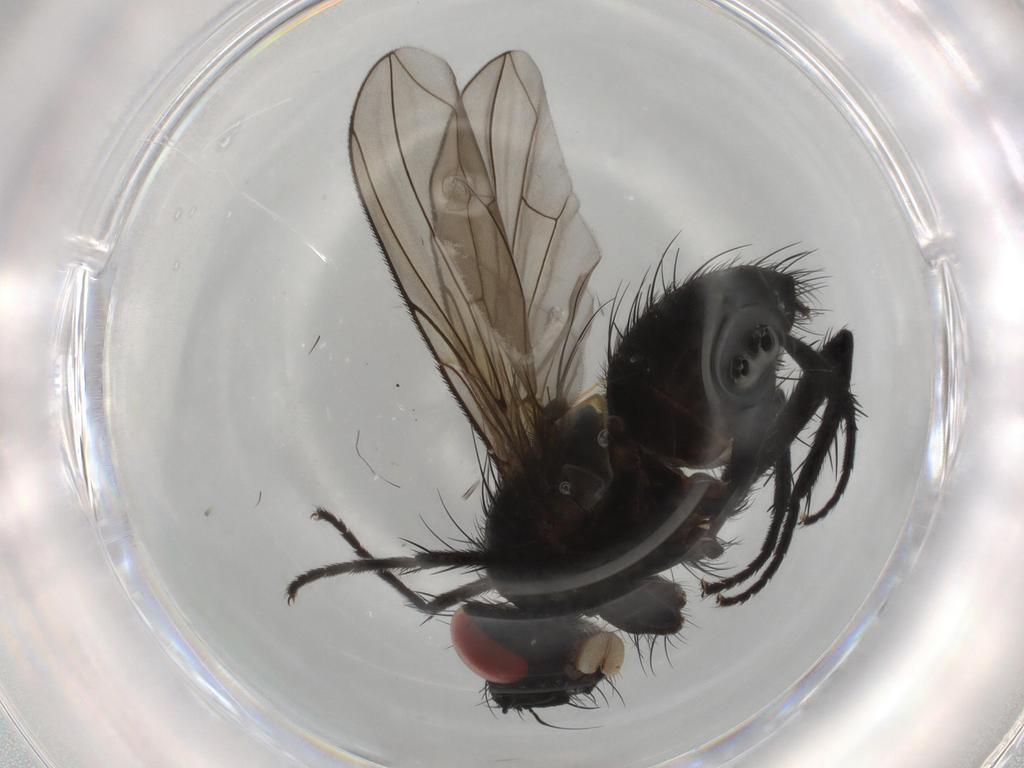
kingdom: Animalia
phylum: Arthropoda
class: Insecta
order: Diptera
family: Tachinidae
